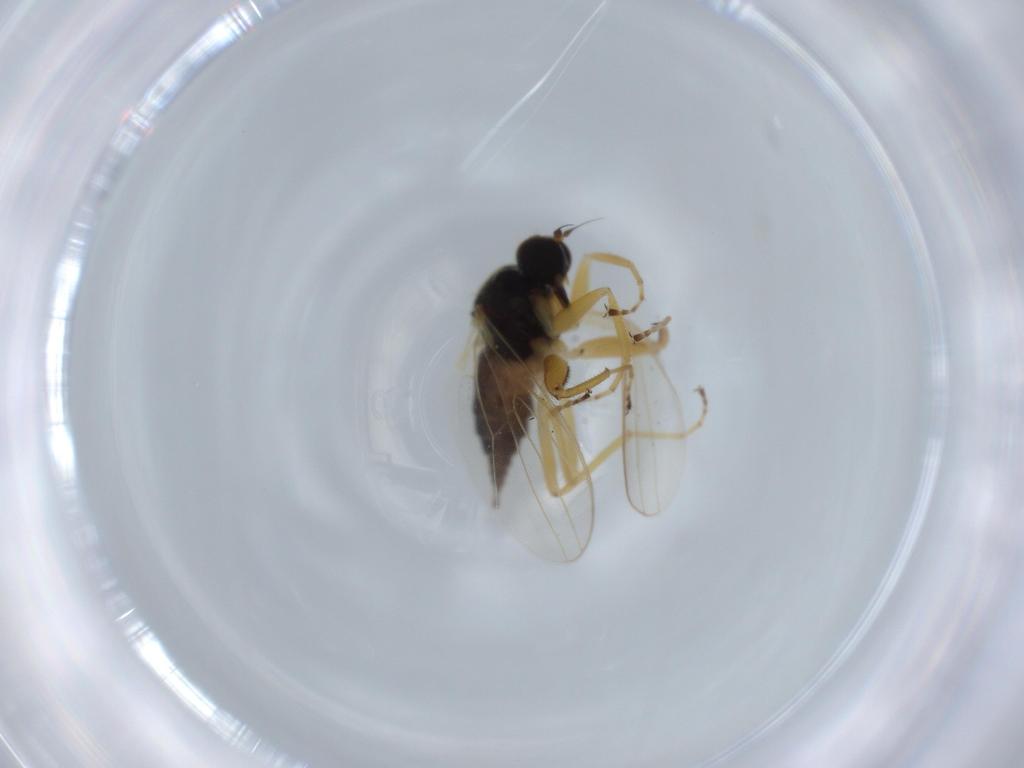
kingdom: Animalia
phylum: Arthropoda
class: Insecta
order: Diptera
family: Hybotidae
